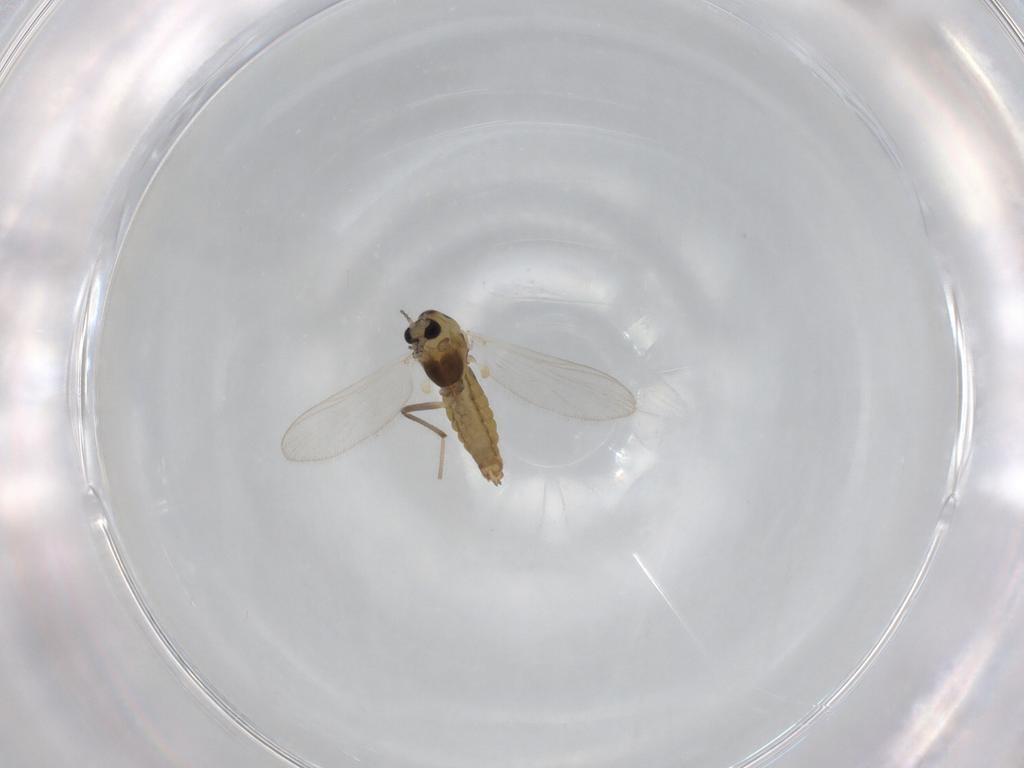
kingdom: Animalia
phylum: Arthropoda
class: Insecta
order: Diptera
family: Chironomidae
